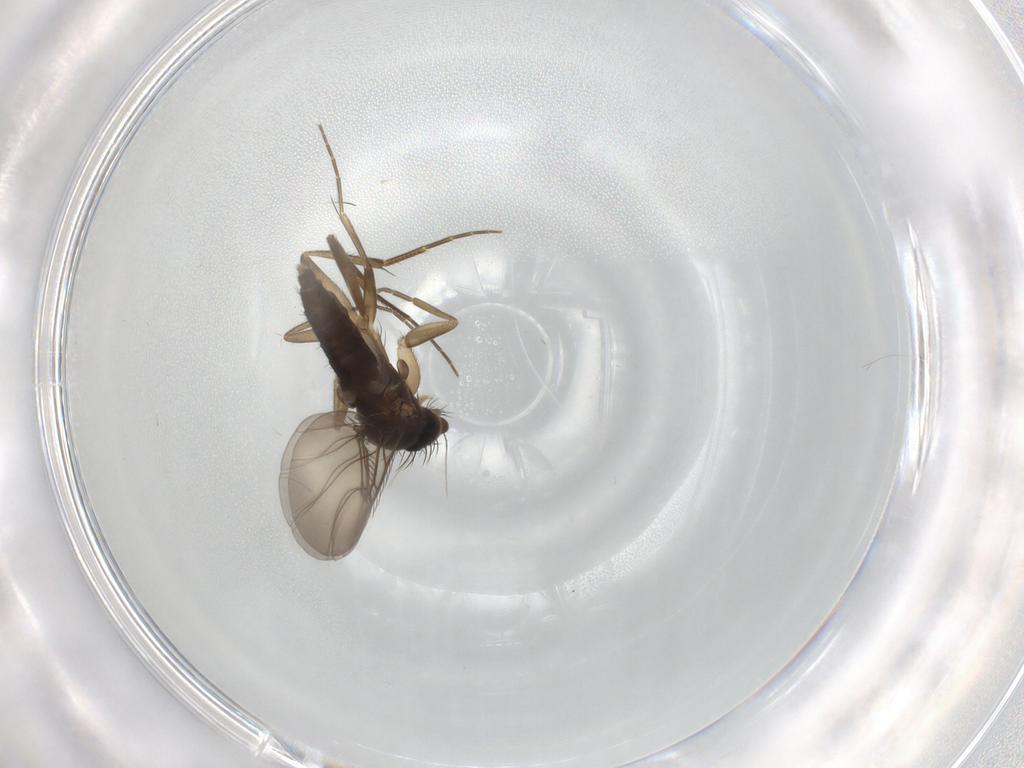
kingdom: Animalia
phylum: Arthropoda
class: Insecta
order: Diptera
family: Phoridae
